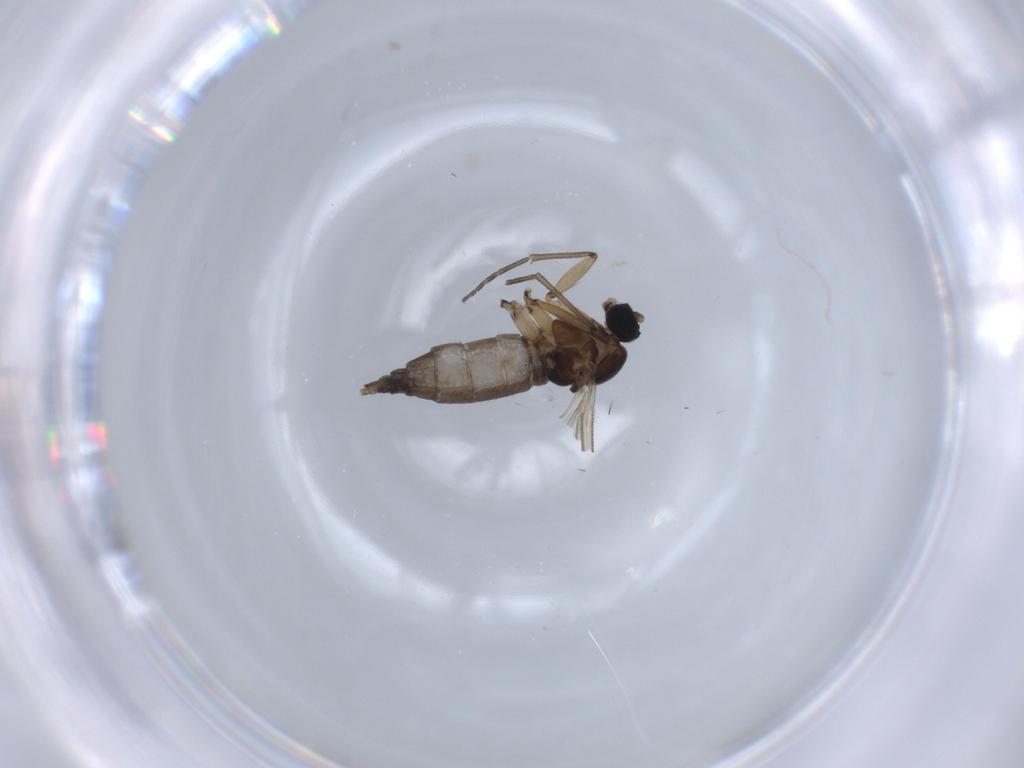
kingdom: Animalia
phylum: Arthropoda
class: Insecta
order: Diptera
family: Sciaridae
